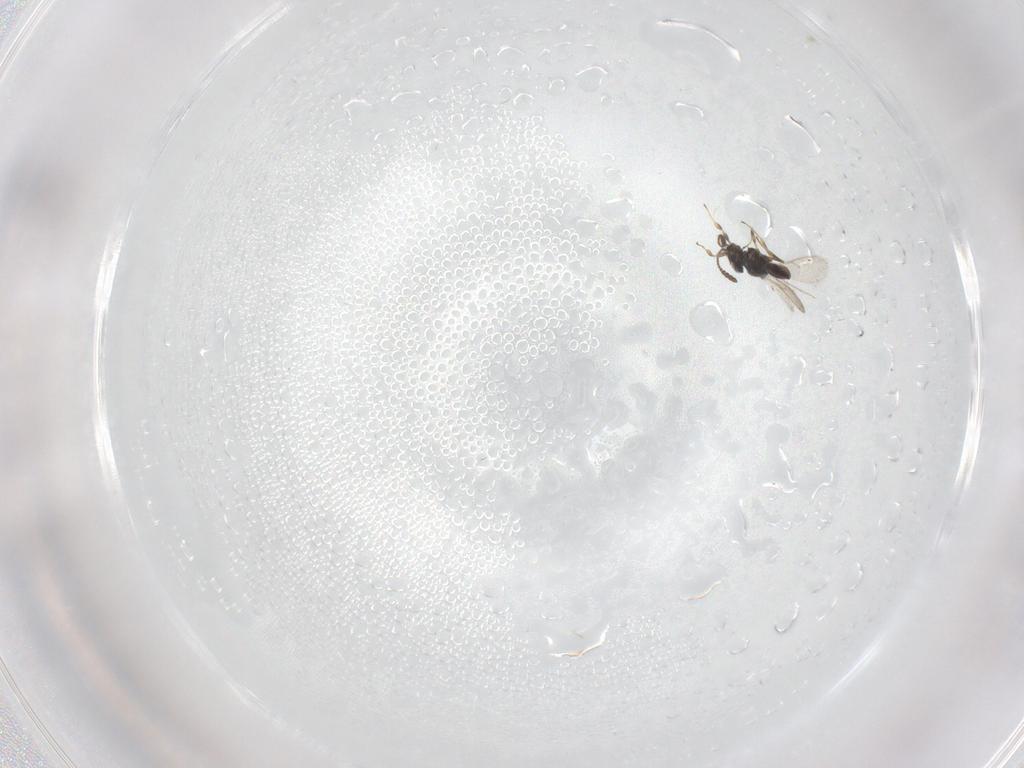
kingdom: Animalia
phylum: Arthropoda
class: Insecta
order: Hymenoptera
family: Scelionidae
